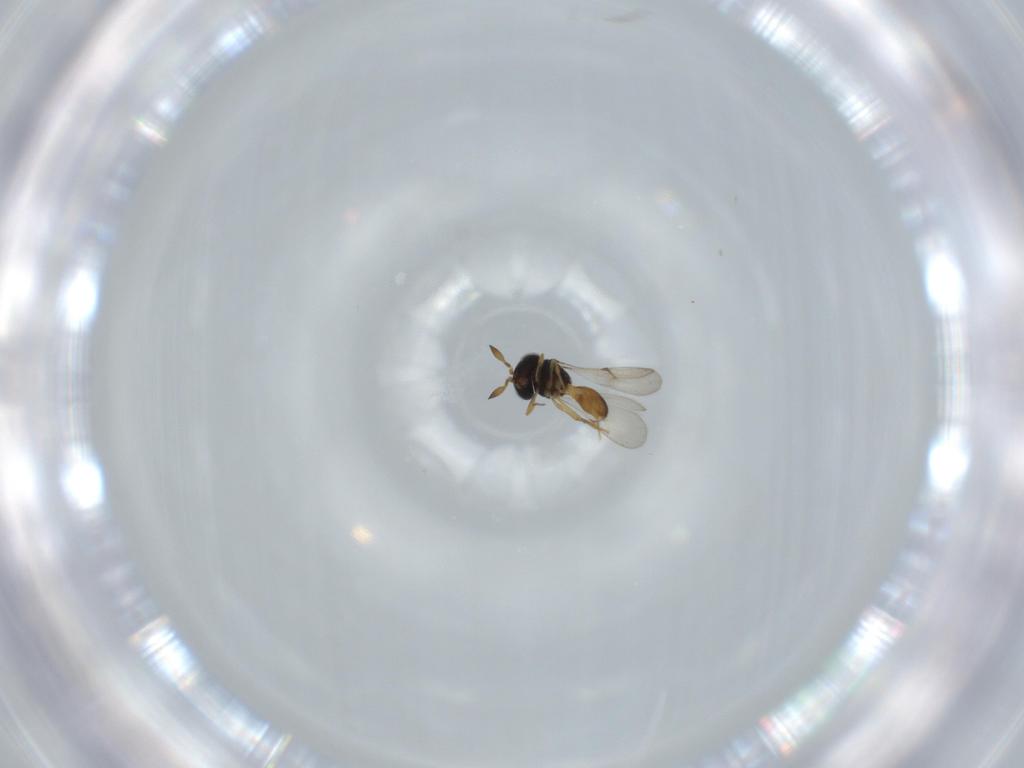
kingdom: Animalia
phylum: Arthropoda
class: Insecta
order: Hymenoptera
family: Scelionidae
